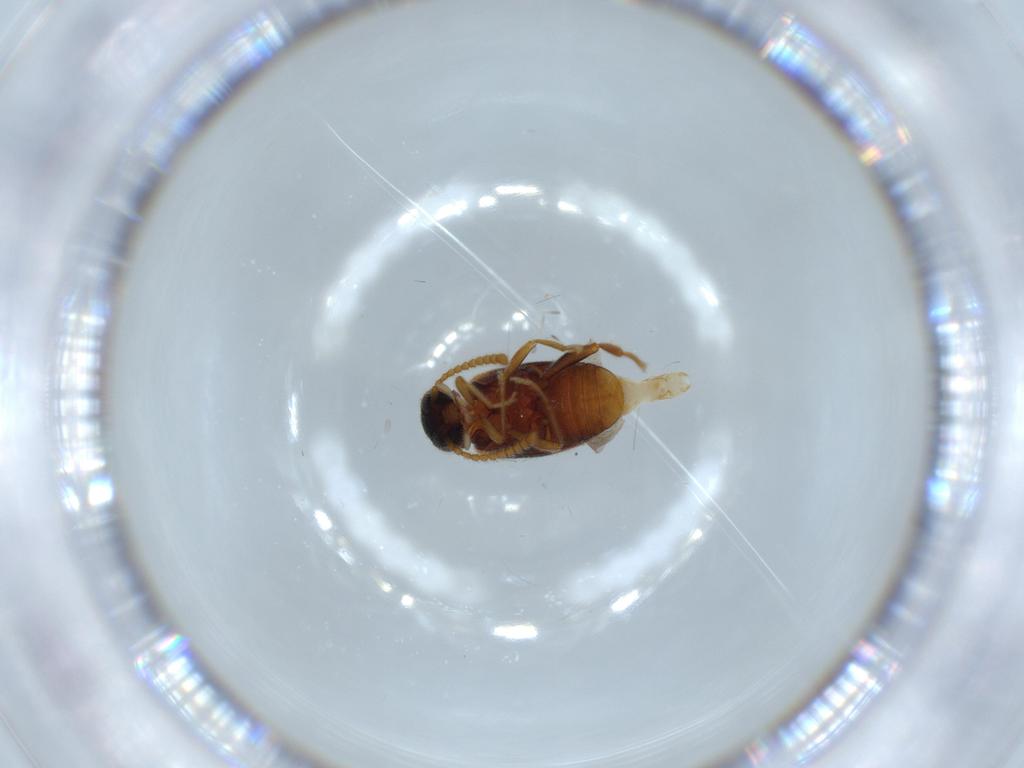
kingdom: Animalia
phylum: Arthropoda
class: Insecta
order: Coleoptera
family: Aderidae
